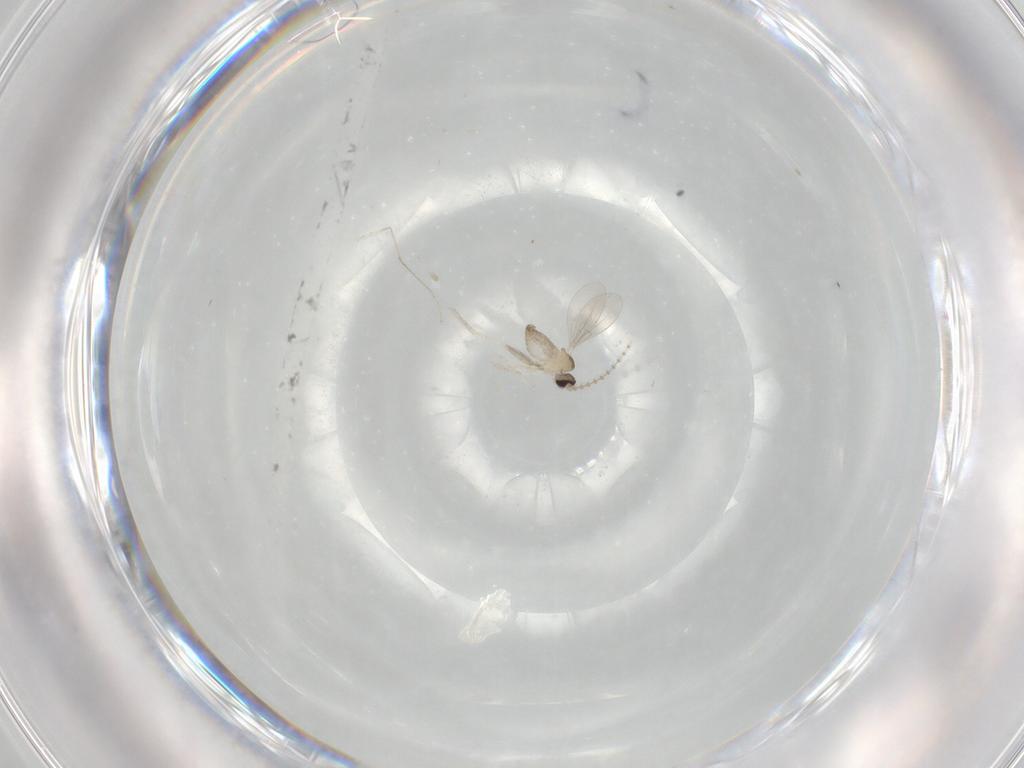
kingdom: Animalia
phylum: Arthropoda
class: Insecta
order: Diptera
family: Cecidomyiidae
